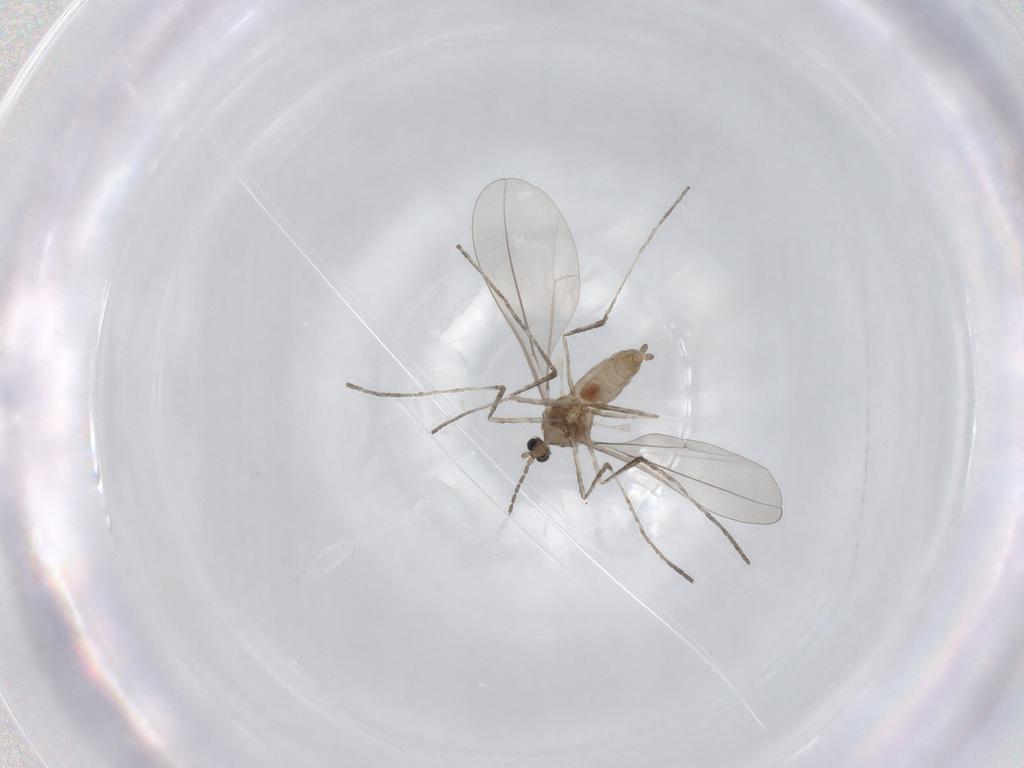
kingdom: Animalia
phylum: Arthropoda
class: Insecta
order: Diptera
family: Cecidomyiidae
